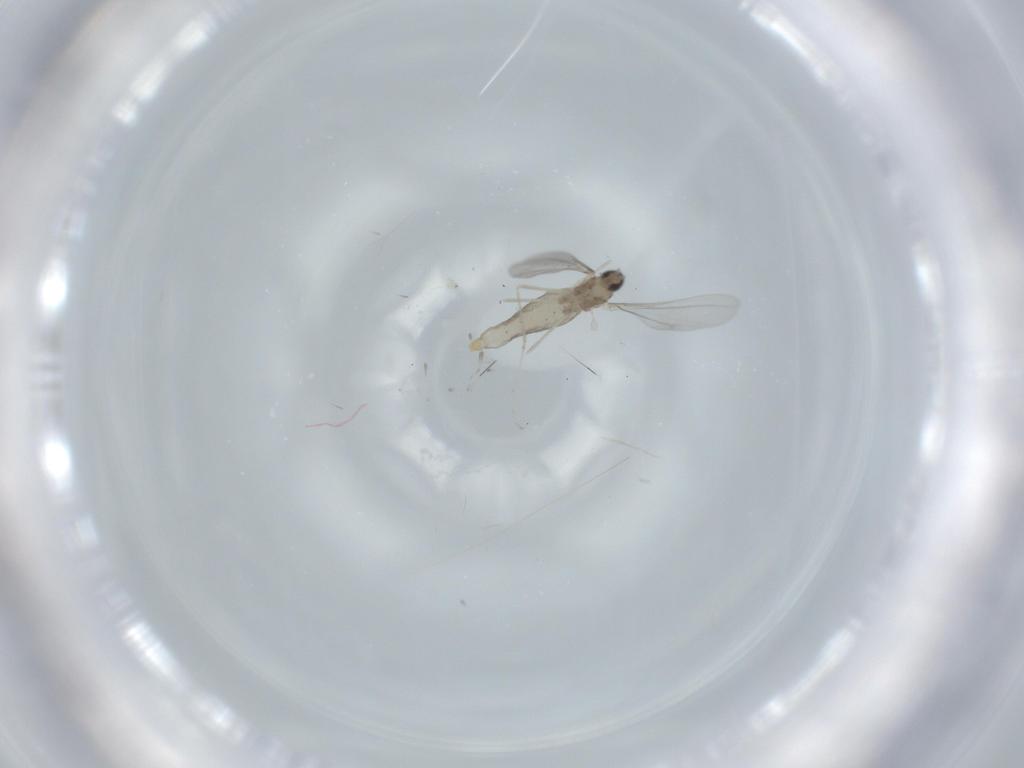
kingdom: Animalia
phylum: Arthropoda
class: Insecta
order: Diptera
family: Cecidomyiidae
